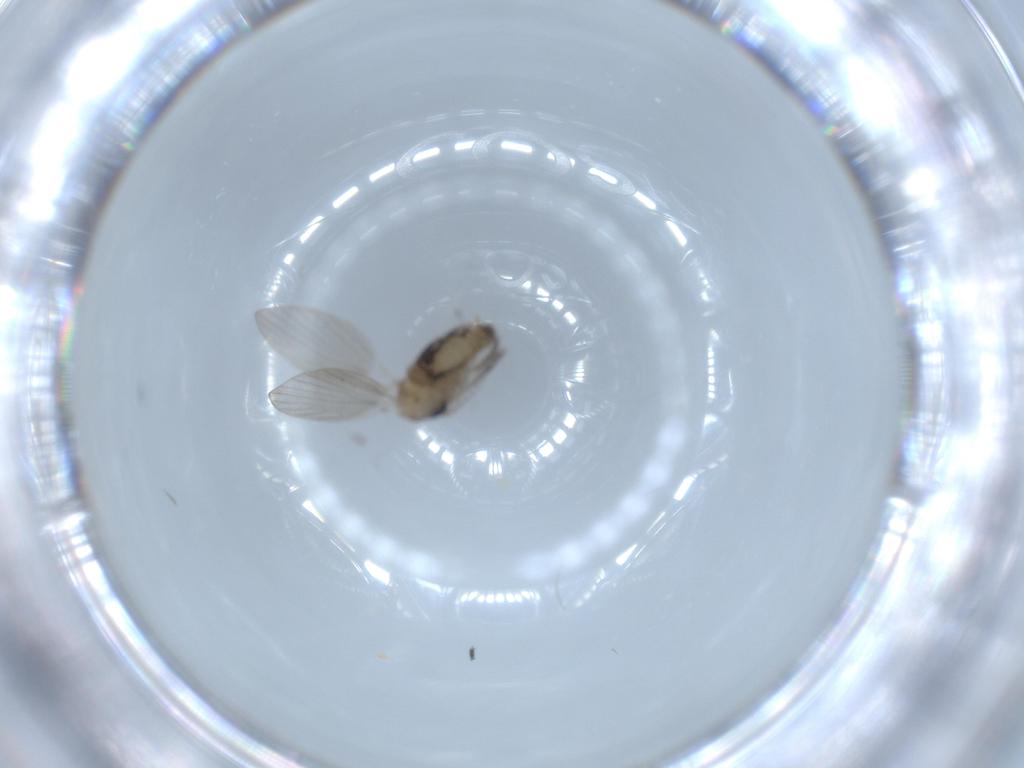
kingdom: Animalia
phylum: Arthropoda
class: Insecta
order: Diptera
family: Psychodidae
